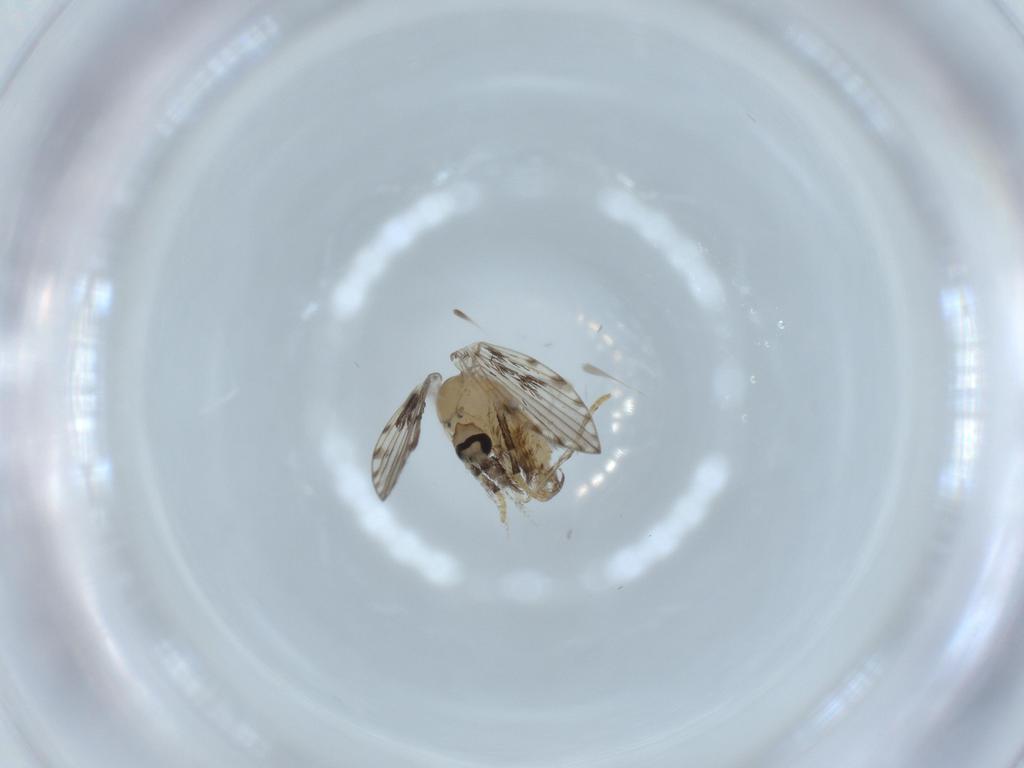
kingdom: Animalia
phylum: Arthropoda
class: Insecta
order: Diptera
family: Psychodidae
